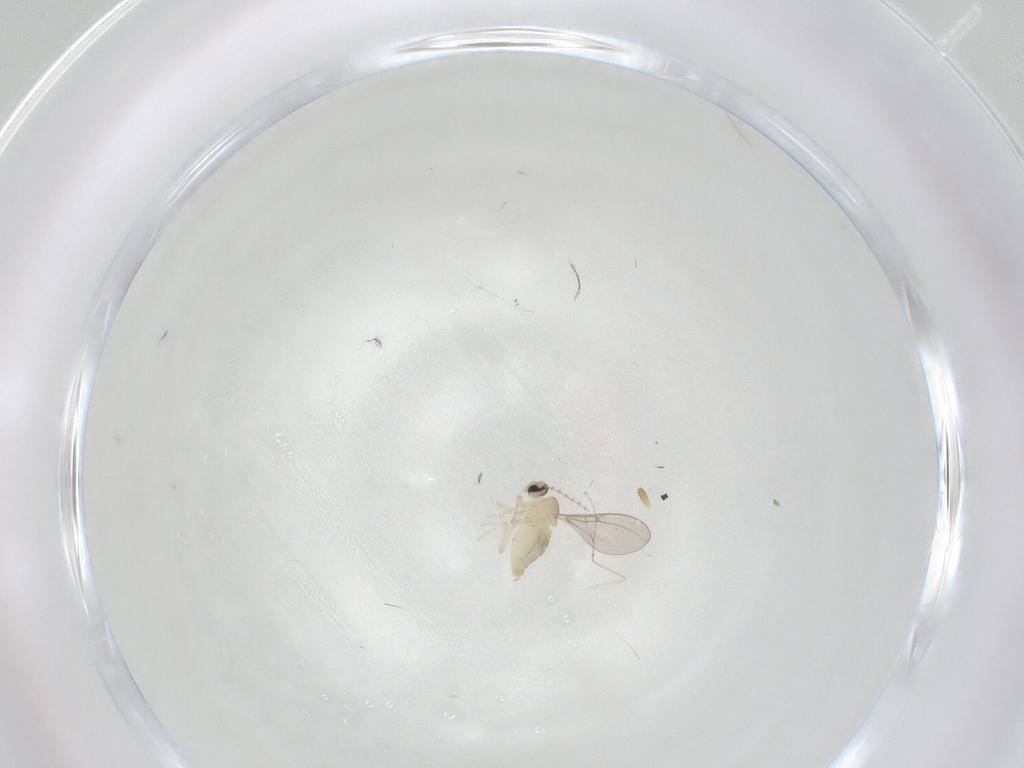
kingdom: Animalia
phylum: Arthropoda
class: Insecta
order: Diptera
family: Cecidomyiidae
